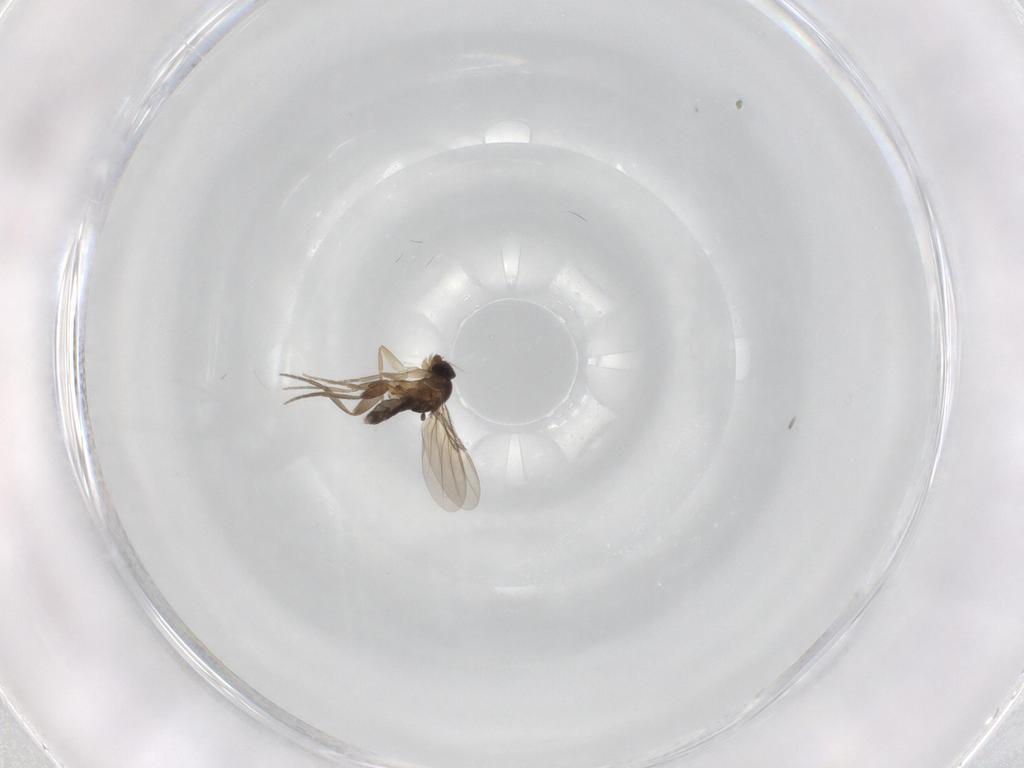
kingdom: Animalia
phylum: Arthropoda
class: Insecta
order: Diptera
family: Phoridae
